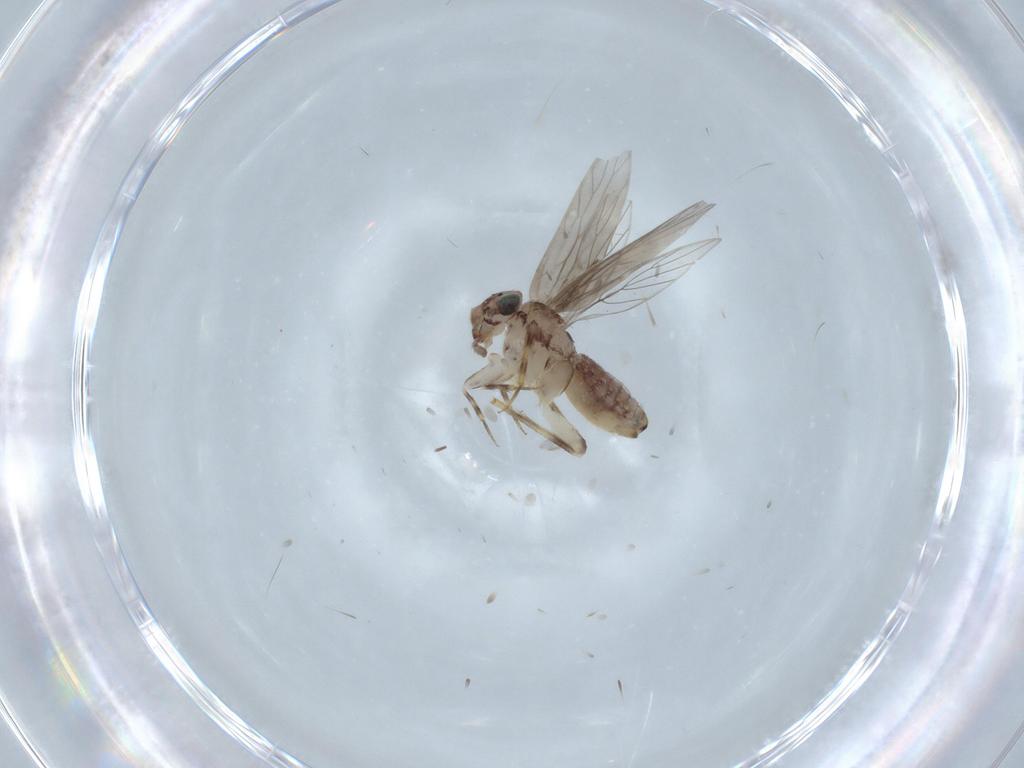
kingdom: Animalia
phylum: Arthropoda
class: Insecta
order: Psocodea
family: Lepidopsocidae
